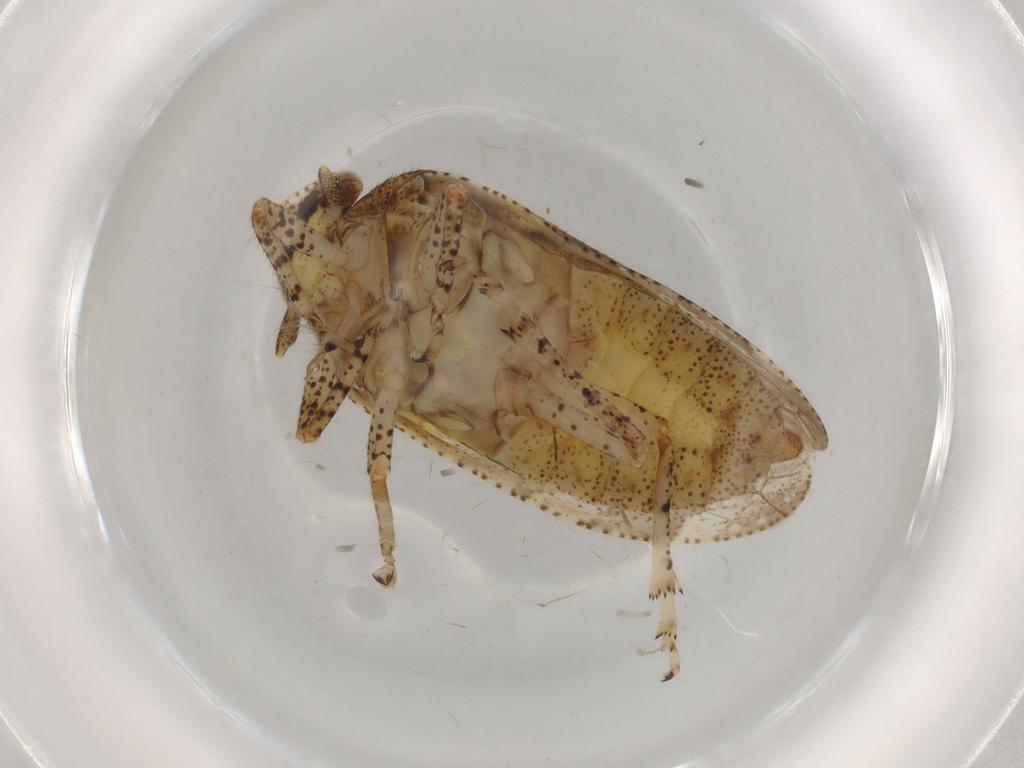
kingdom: Animalia
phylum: Arthropoda
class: Insecta
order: Hemiptera
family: Tettigometridae
